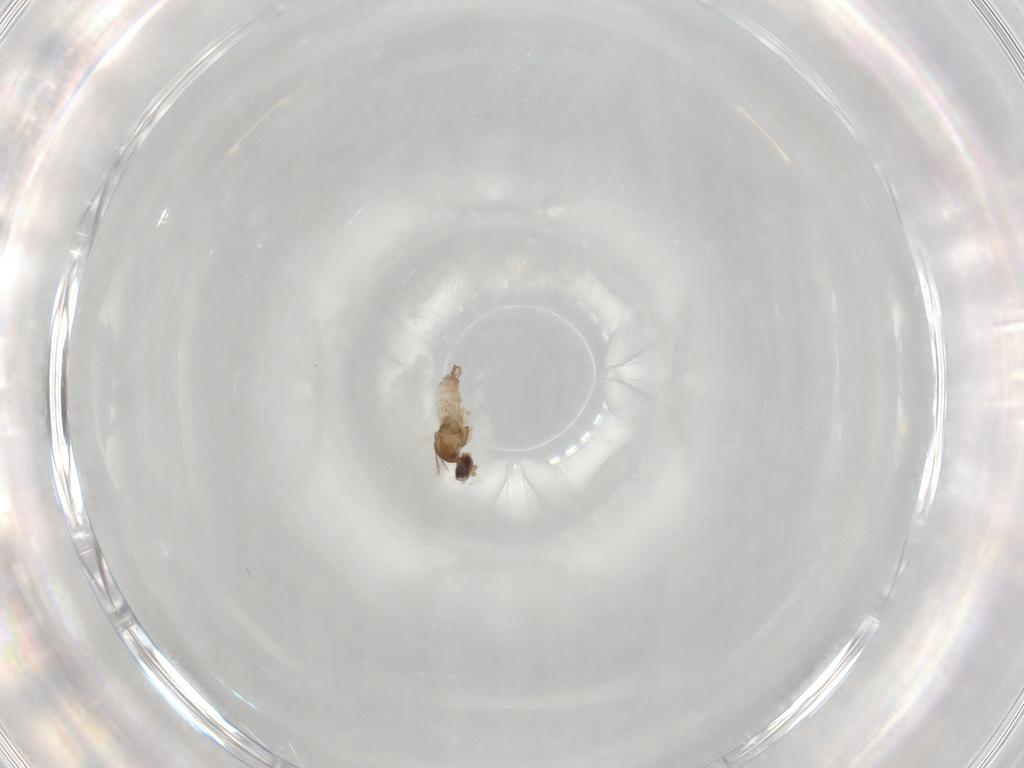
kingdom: Animalia
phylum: Arthropoda
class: Insecta
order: Diptera
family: Cecidomyiidae
